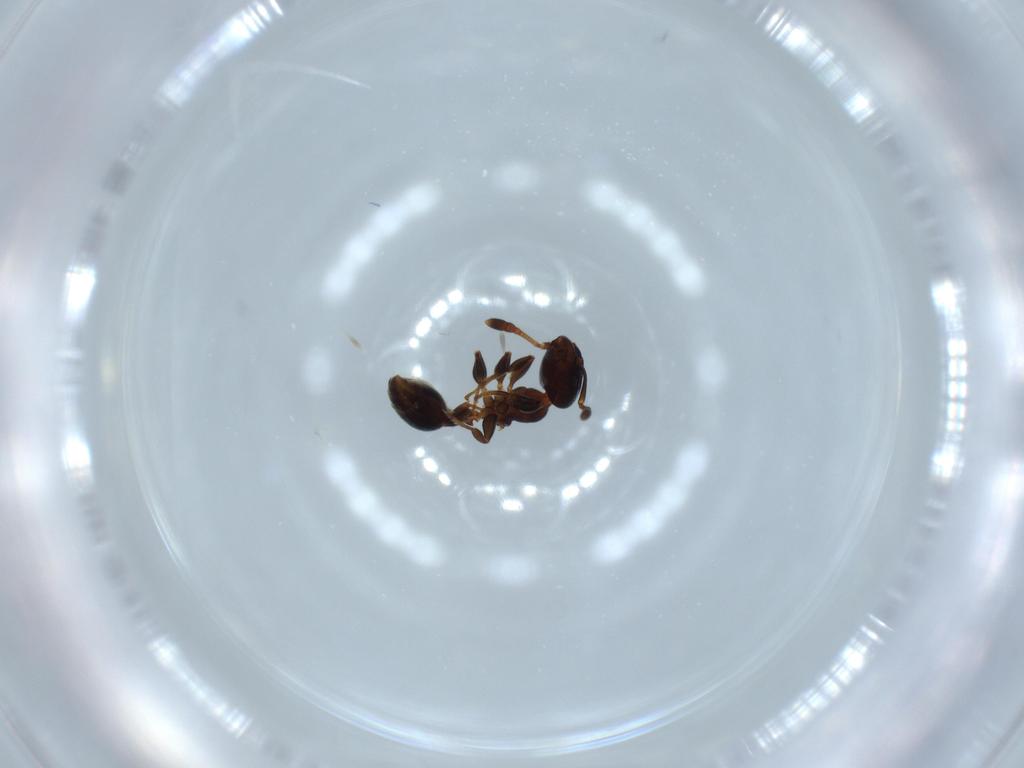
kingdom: Animalia
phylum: Arthropoda
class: Insecta
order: Hymenoptera
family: Formicidae
